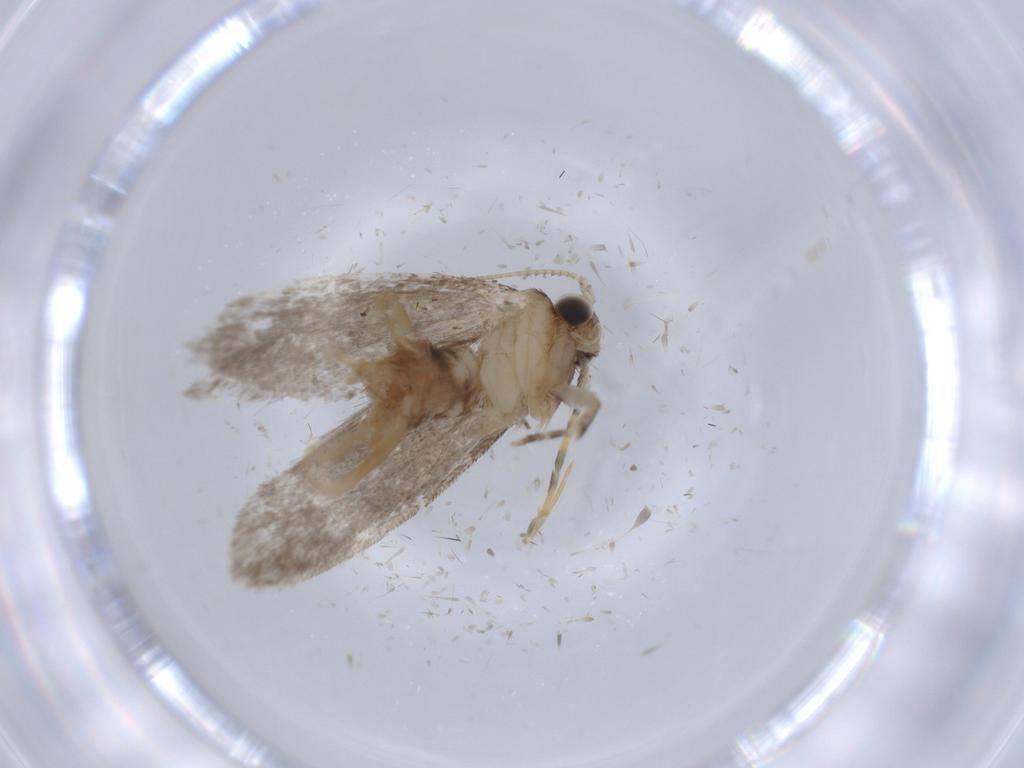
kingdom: Animalia
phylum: Arthropoda
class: Insecta
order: Lepidoptera
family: Tineidae
